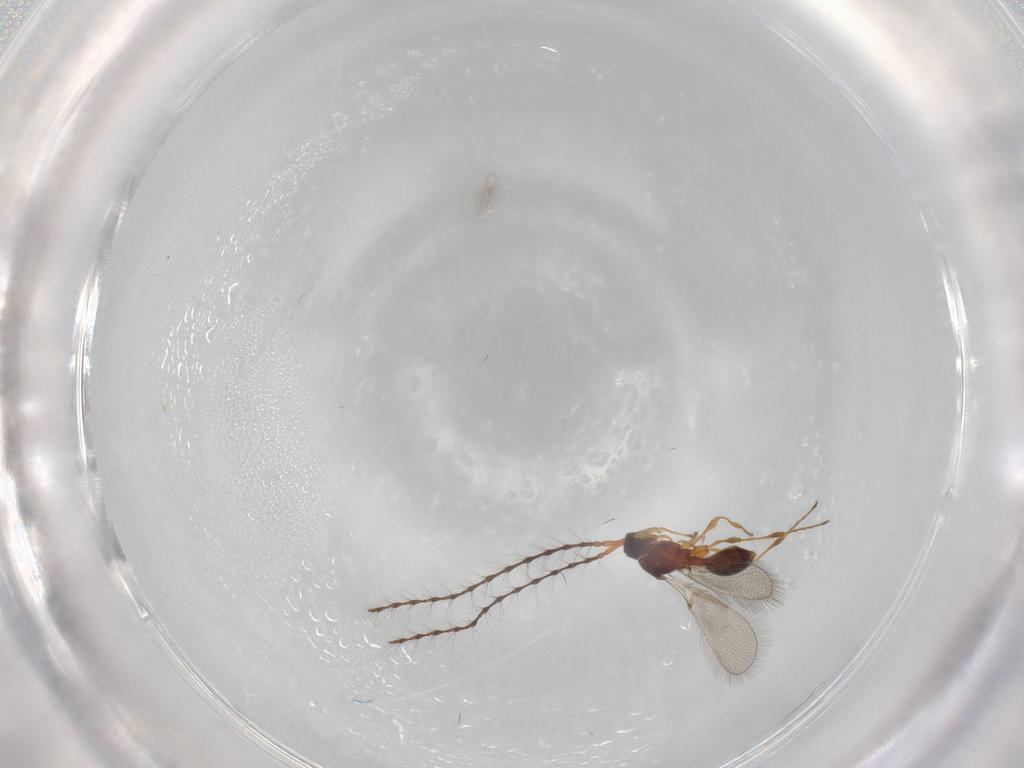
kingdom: Animalia
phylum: Arthropoda
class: Insecta
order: Hymenoptera
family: Diapriidae
